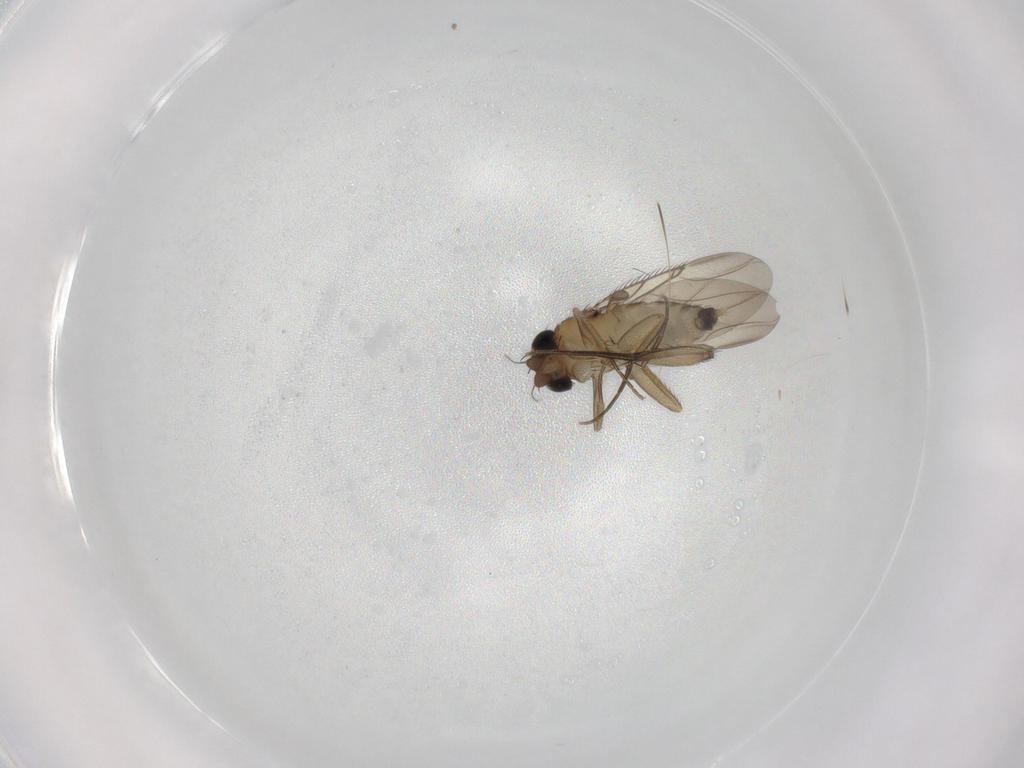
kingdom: Animalia
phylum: Arthropoda
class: Insecta
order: Diptera
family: Phoridae
